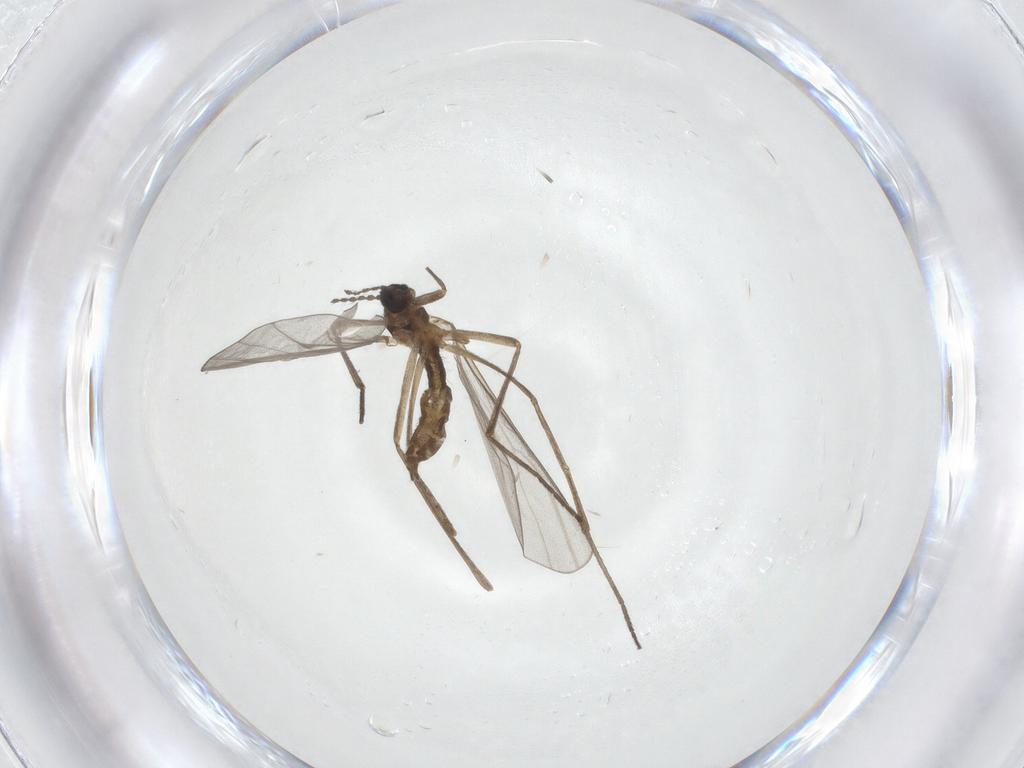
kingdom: Animalia
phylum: Arthropoda
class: Insecta
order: Diptera
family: Cecidomyiidae
